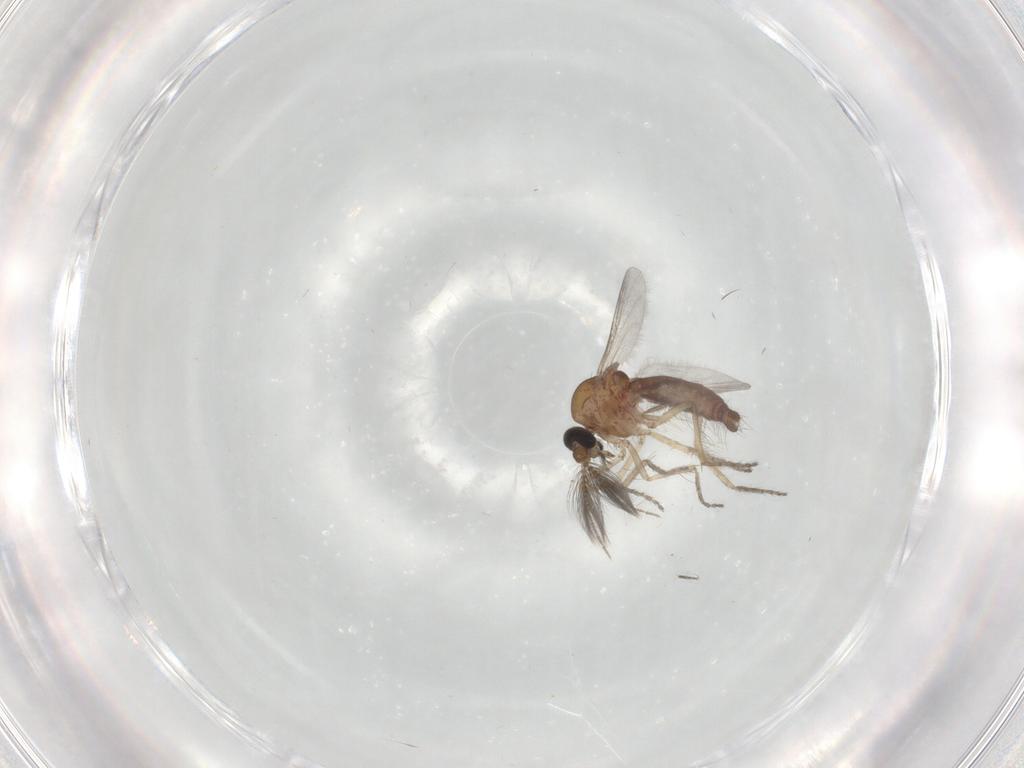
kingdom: Animalia
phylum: Arthropoda
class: Insecta
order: Diptera
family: Ceratopogonidae
